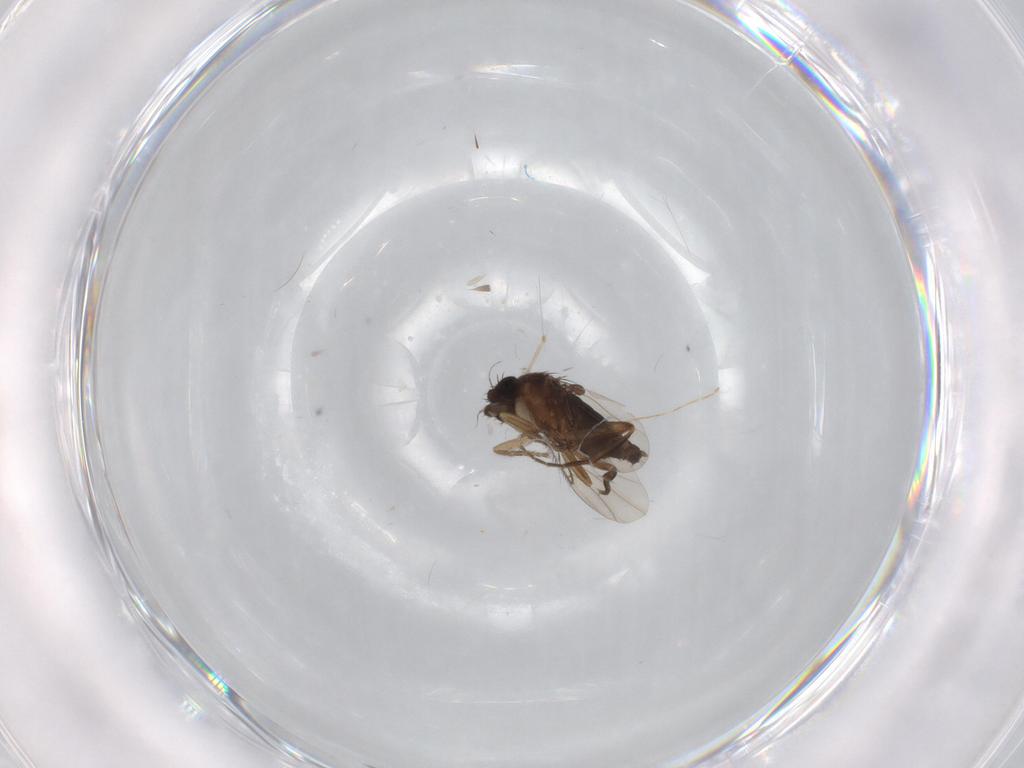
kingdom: Animalia
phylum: Arthropoda
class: Insecta
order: Diptera
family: Phoridae
